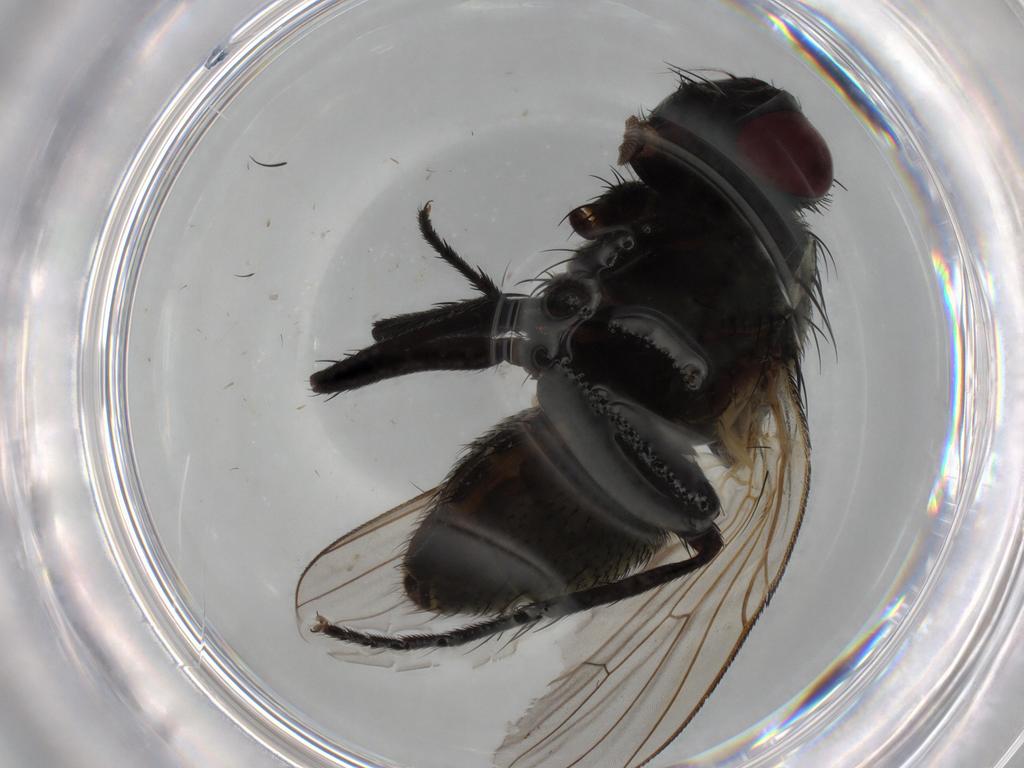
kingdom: Animalia
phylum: Arthropoda
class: Insecta
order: Diptera
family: Muscidae
